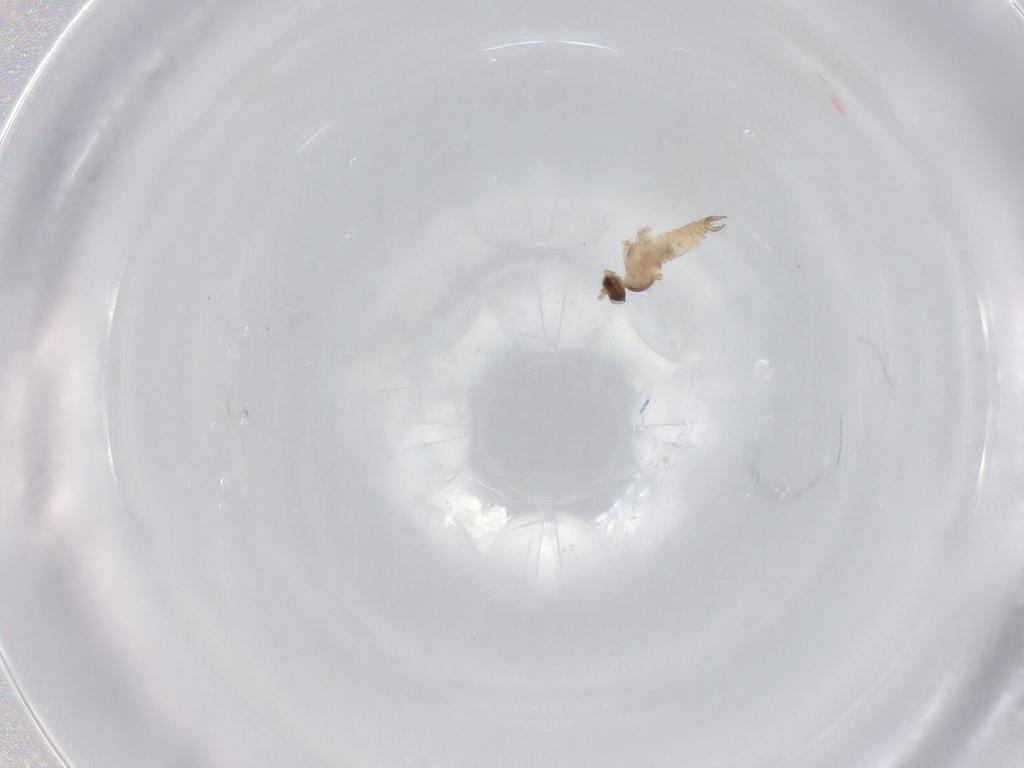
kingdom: Animalia
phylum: Arthropoda
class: Insecta
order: Diptera
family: Cecidomyiidae
